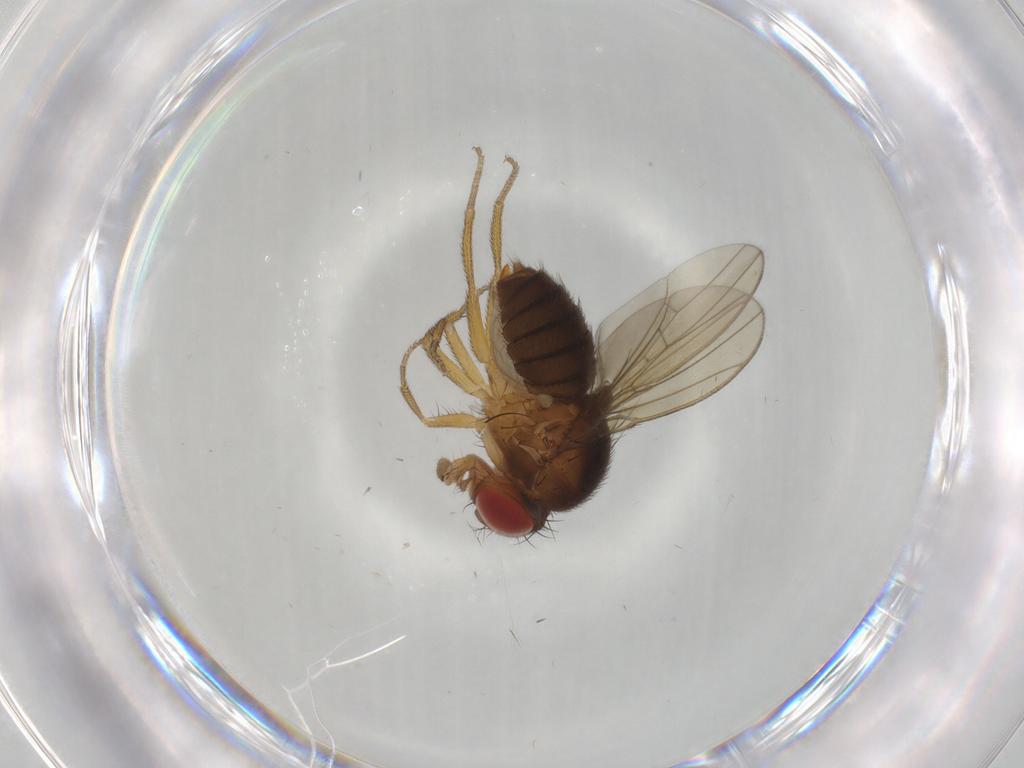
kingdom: Animalia
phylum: Arthropoda
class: Insecta
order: Diptera
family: Drosophilidae
